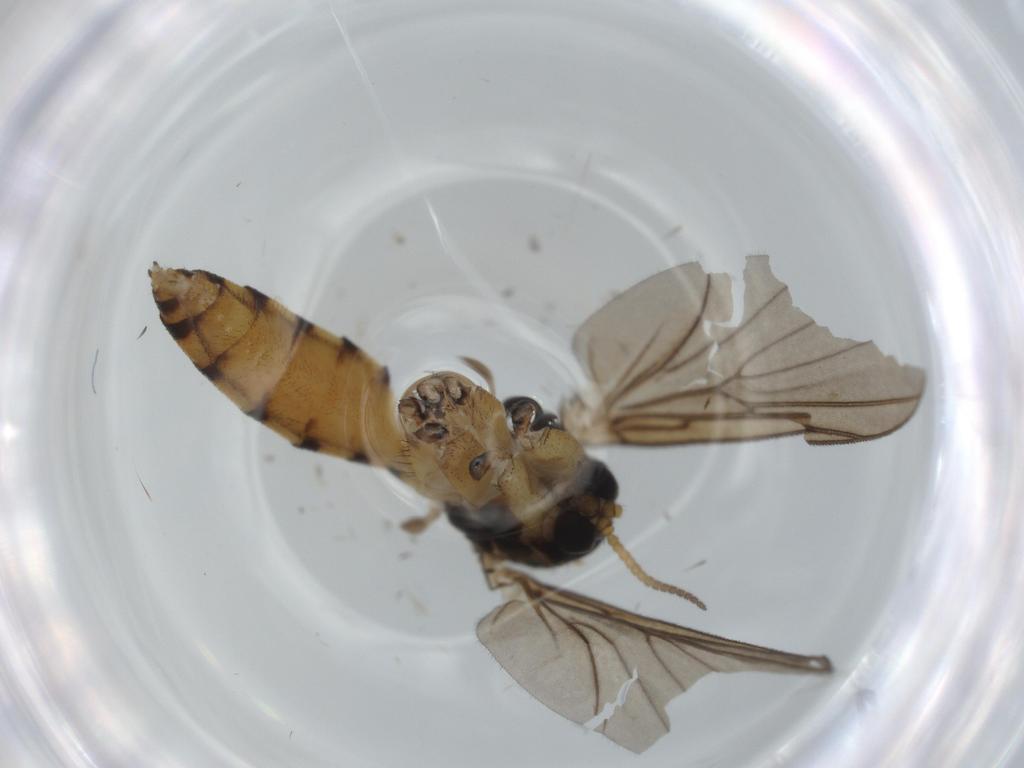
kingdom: Animalia
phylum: Arthropoda
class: Insecta
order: Diptera
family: Mycetophilidae
